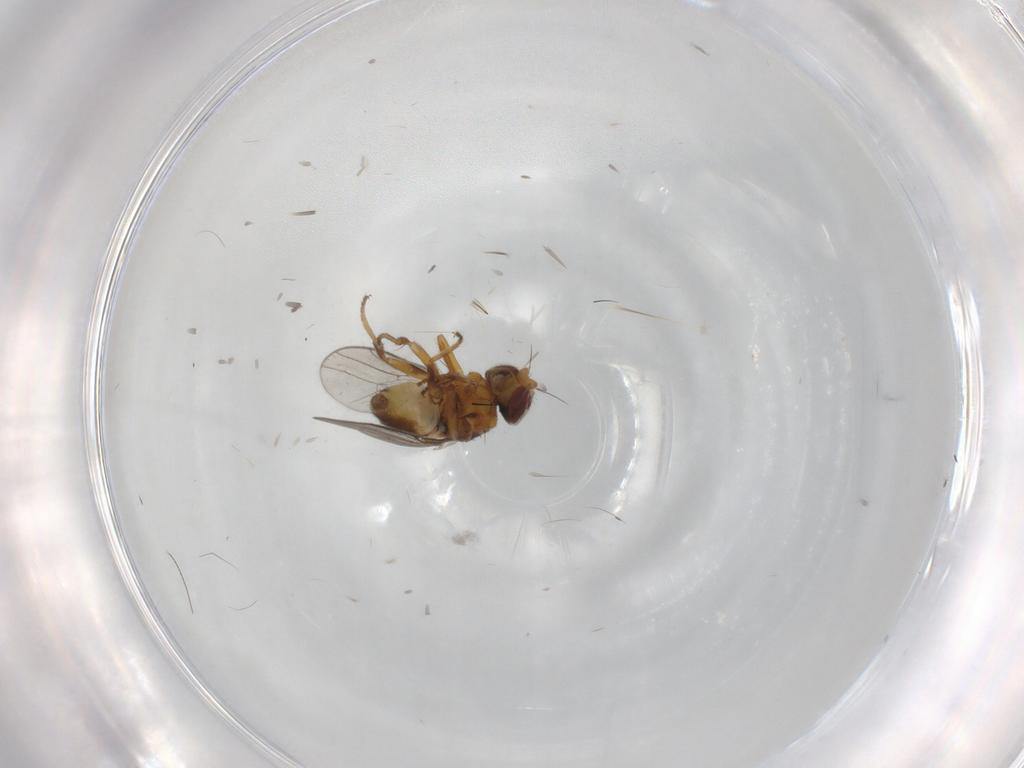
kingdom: Animalia
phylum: Arthropoda
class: Insecta
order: Diptera
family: Chloropidae
